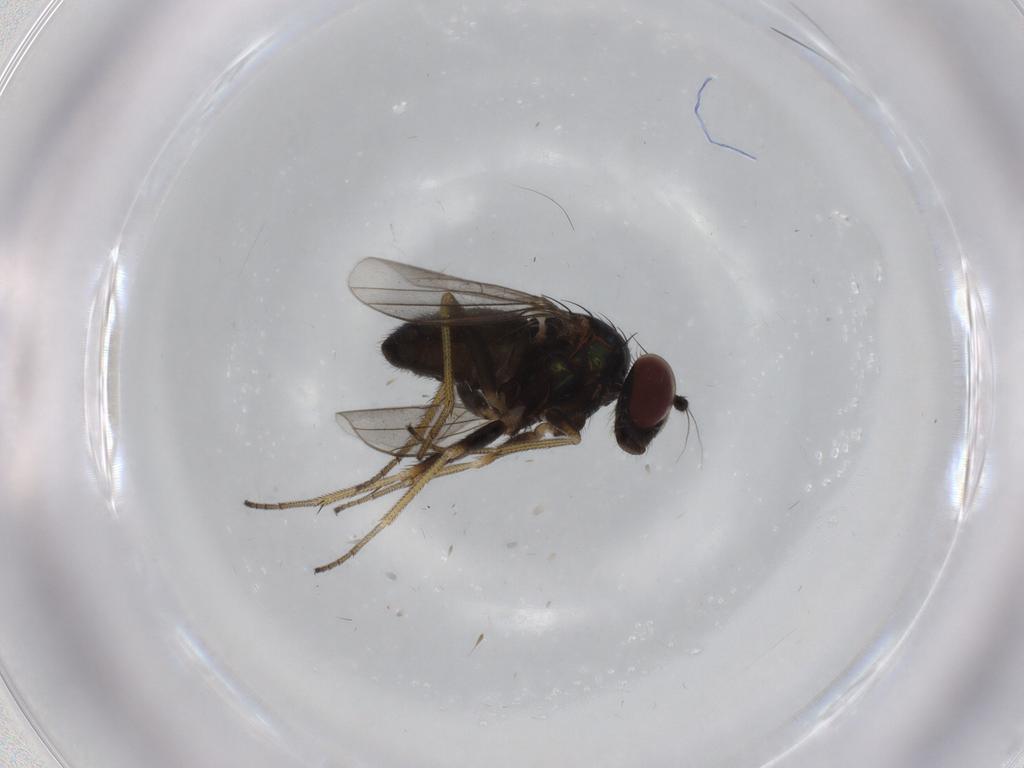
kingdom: Animalia
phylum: Arthropoda
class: Insecta
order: Diptera
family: Dolichopodidae
